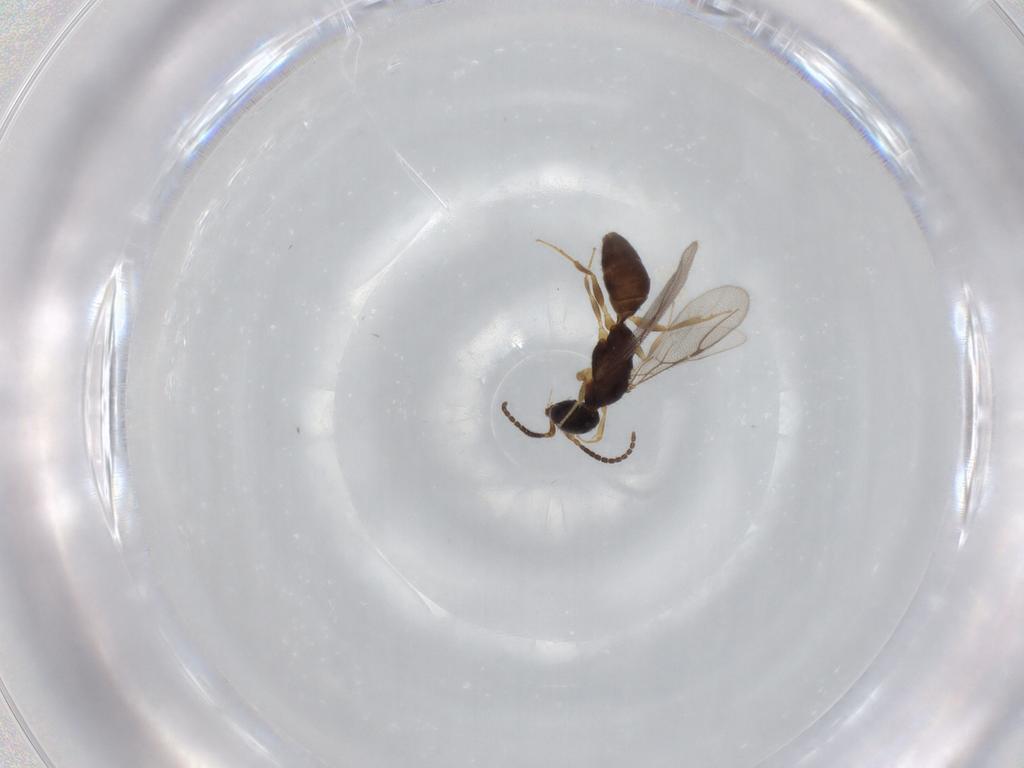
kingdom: Animalia
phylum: Arthropoda
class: Insecta
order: Hymenoptera
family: Bethylidae
